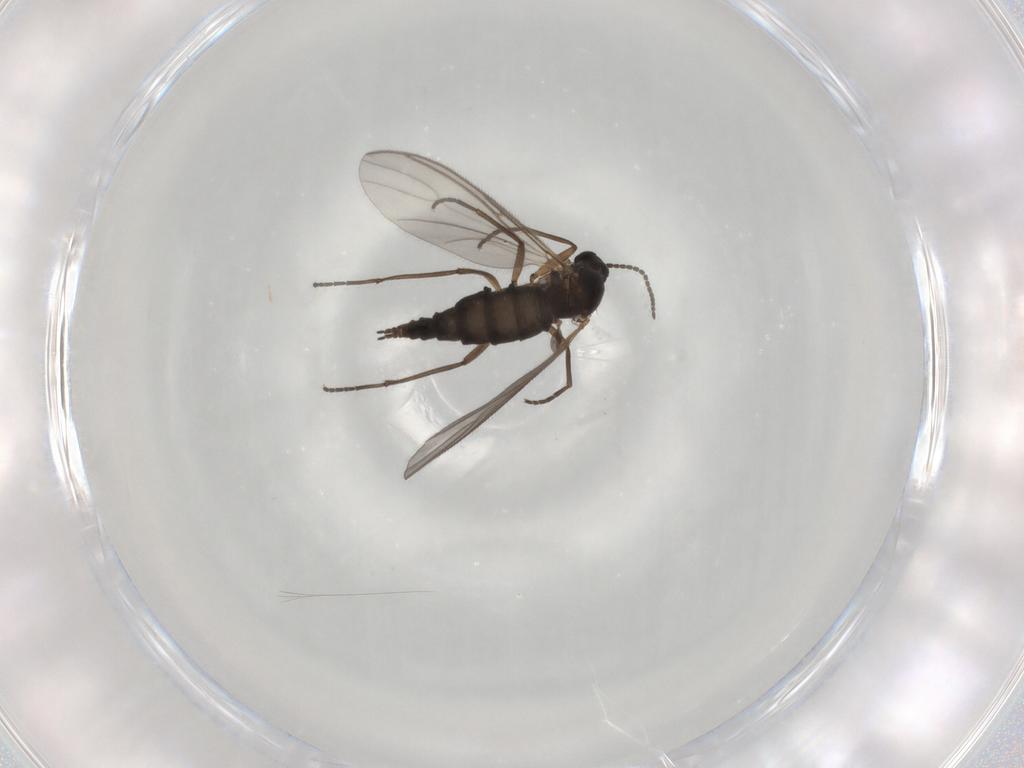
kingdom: Animalia
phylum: Arthropoda
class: Insecta
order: Diptera
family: Sciaridae
